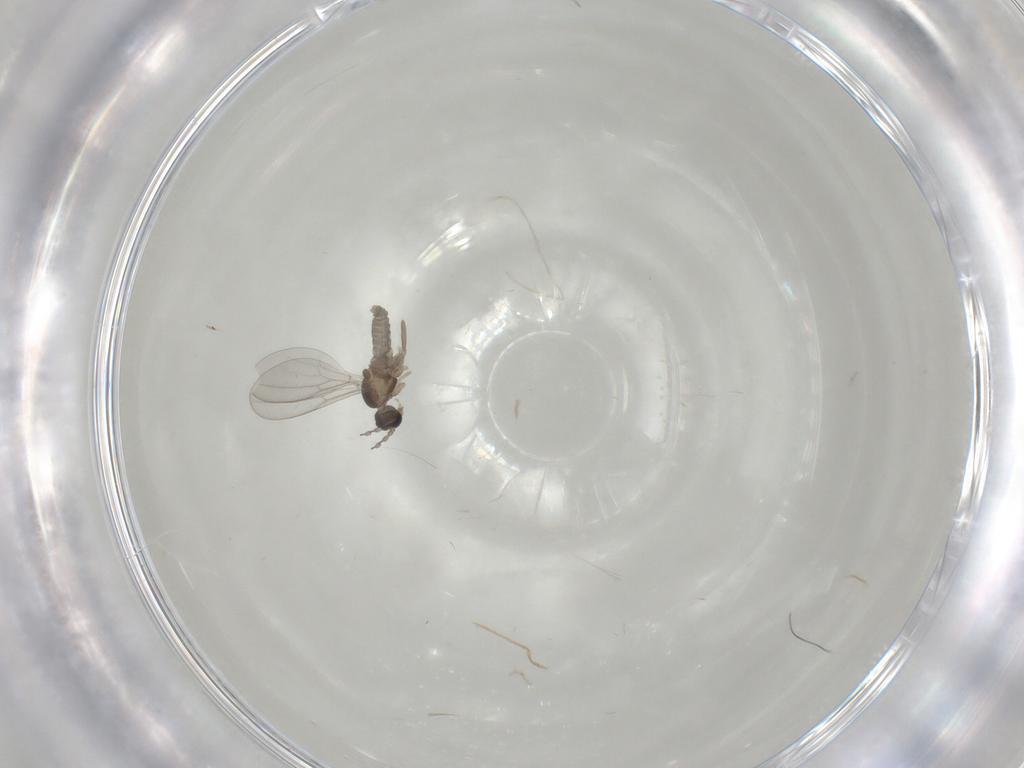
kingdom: Animalia
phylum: Arthropoda
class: Insecta
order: Diptera
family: Cecidomyiidae
